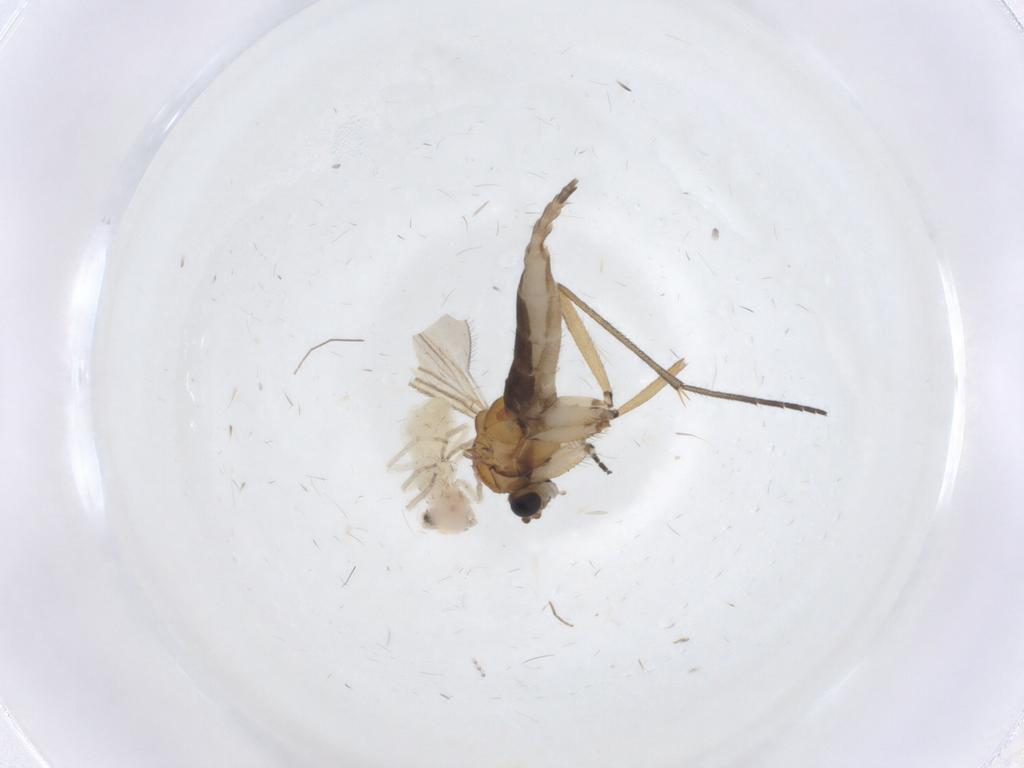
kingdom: Animalia
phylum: Arthropoda
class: Insecta
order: Diptera
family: Sciaridae
